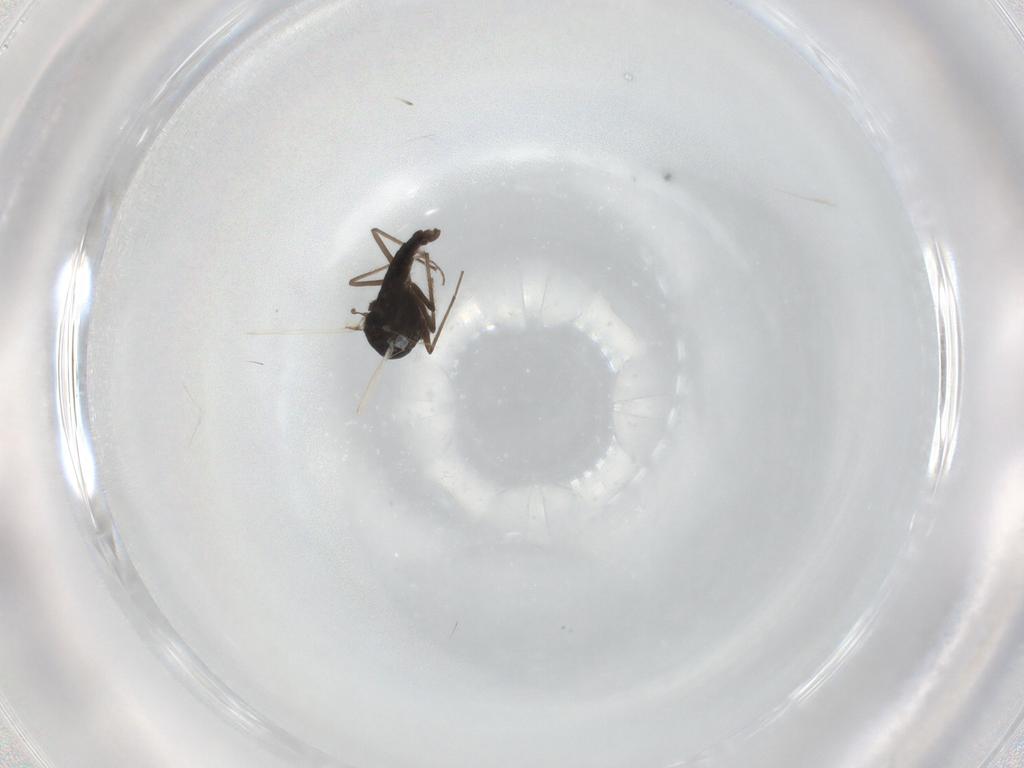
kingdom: Animalia
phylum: Arthropoda
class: Insecta
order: Diptera
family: Chironomidae
